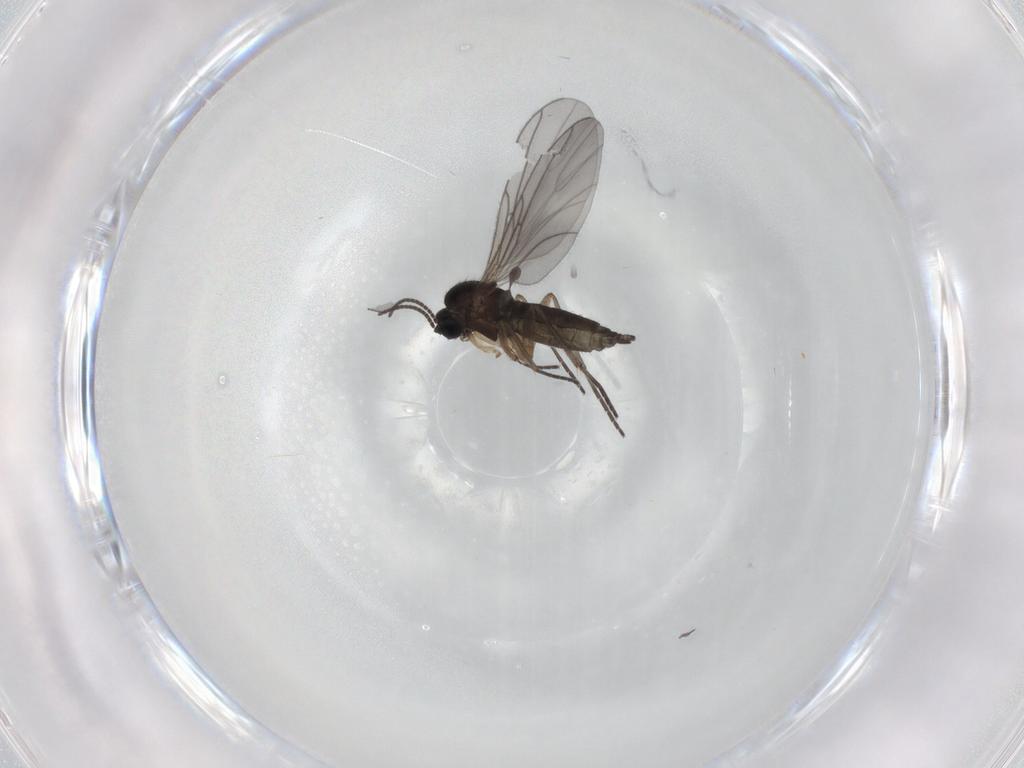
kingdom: Animalia
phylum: Arthropoda
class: Insecta
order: Diptera
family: Sciaridae
